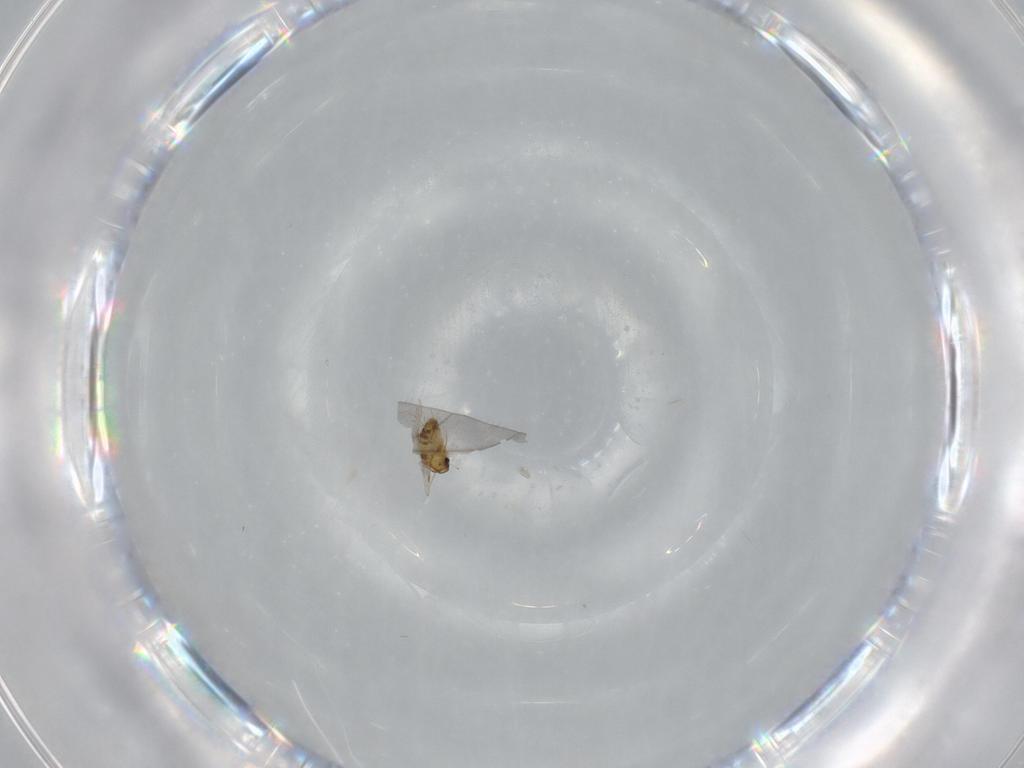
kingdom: Animalia
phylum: Arthropoda
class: Insecta
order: Diptera
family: Chironomidae
